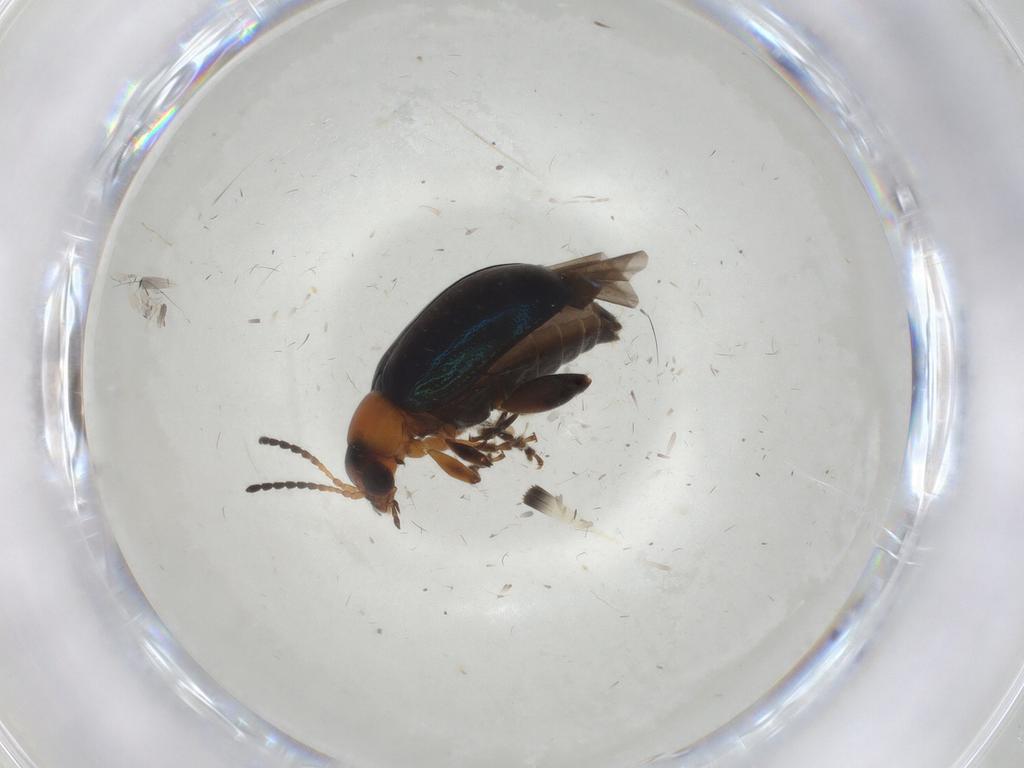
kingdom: Animalia
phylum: Arthropoda
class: Insecta
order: Coleoptera
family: Chrysomelidae
